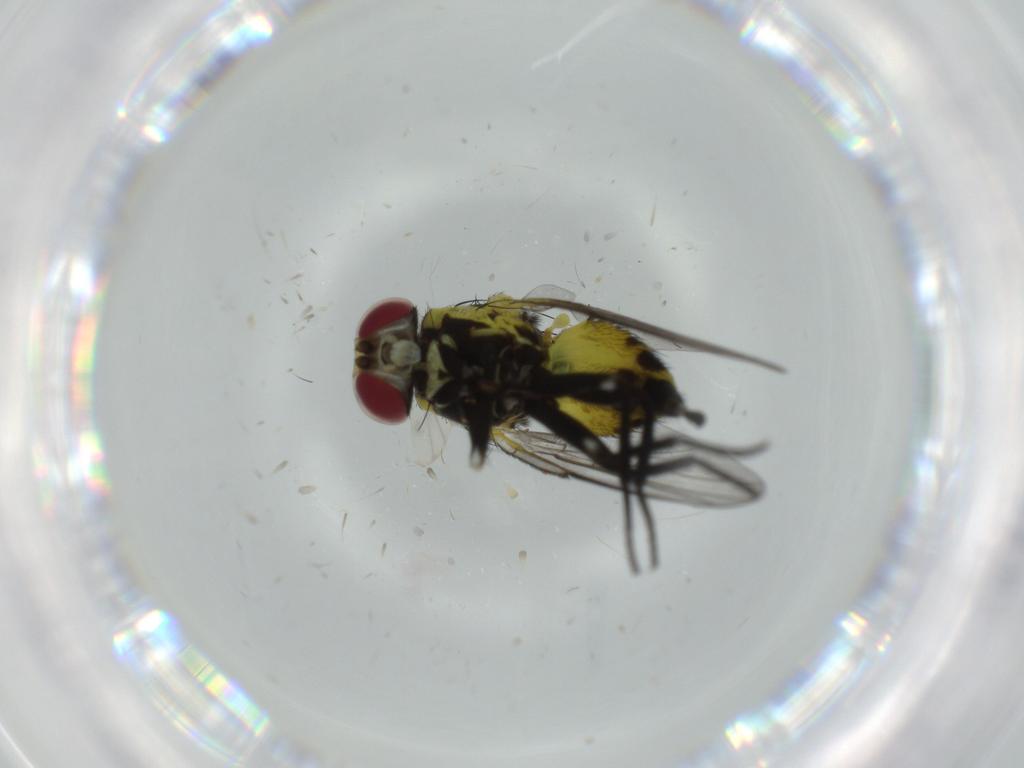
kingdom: Animalia
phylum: Arthropoda
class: Insecta
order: Diptera
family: Agromyzidae
